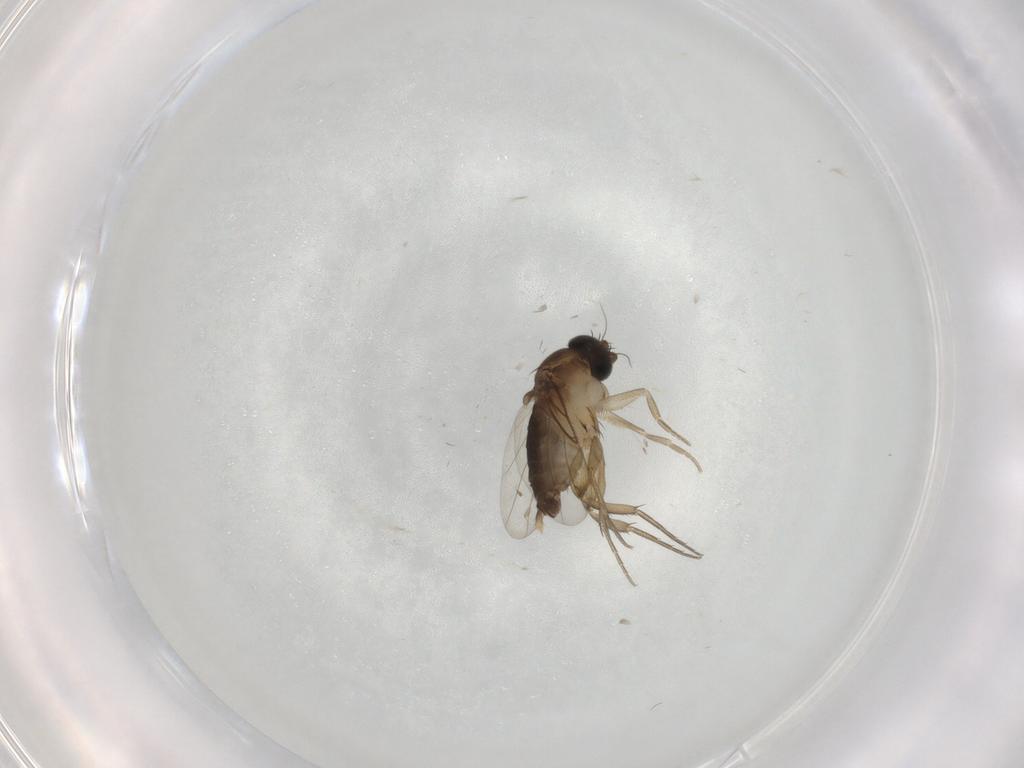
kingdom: Animalia
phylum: Arthropoda
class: Insecta
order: Diptera
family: Phoridae
